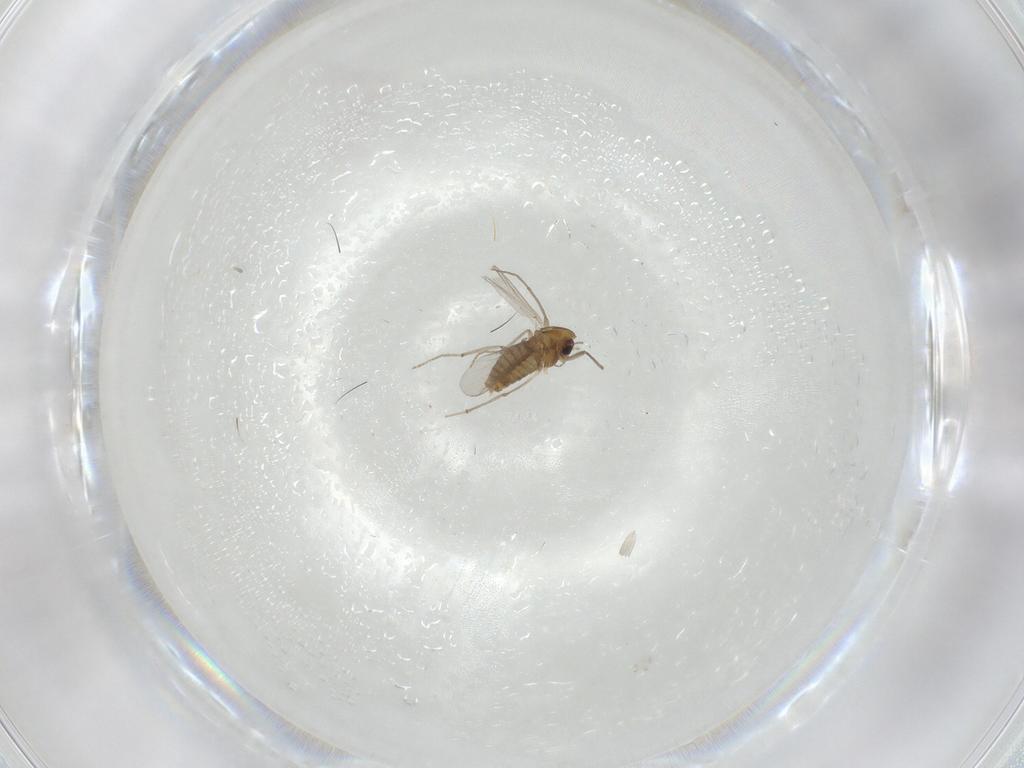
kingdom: Animalia
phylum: Arthropoda
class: Insecta
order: Diptera
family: Chironomidae
